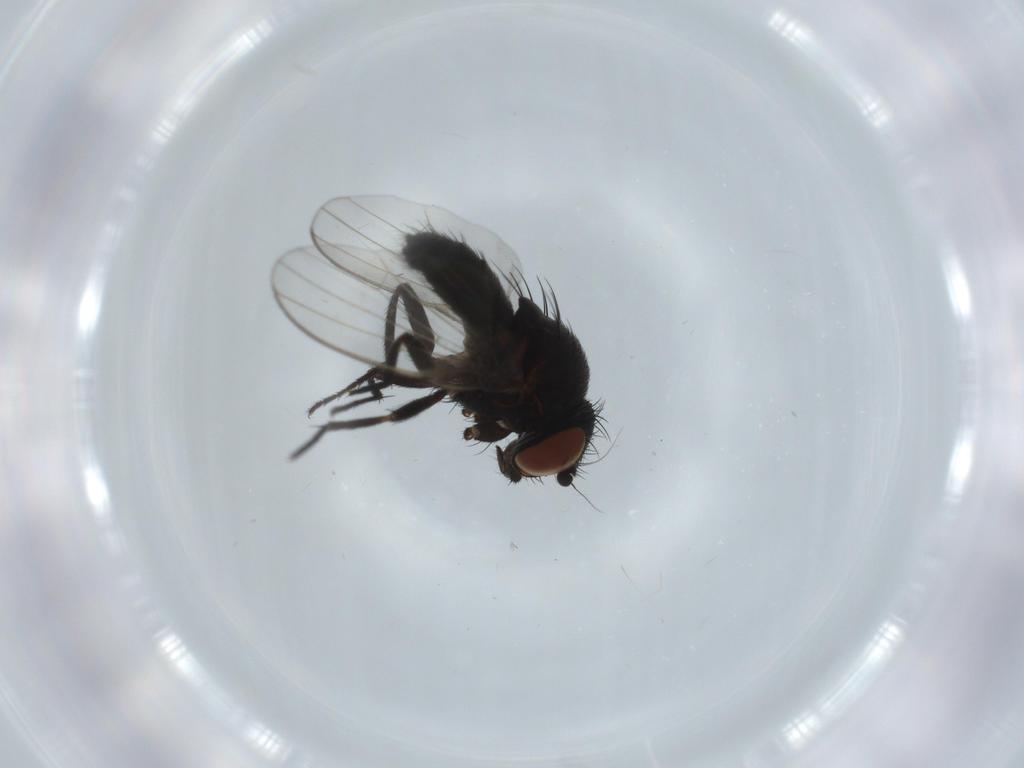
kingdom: Animalia
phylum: Arthropoda
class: Insecta
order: Diptera
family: Milichiidae
